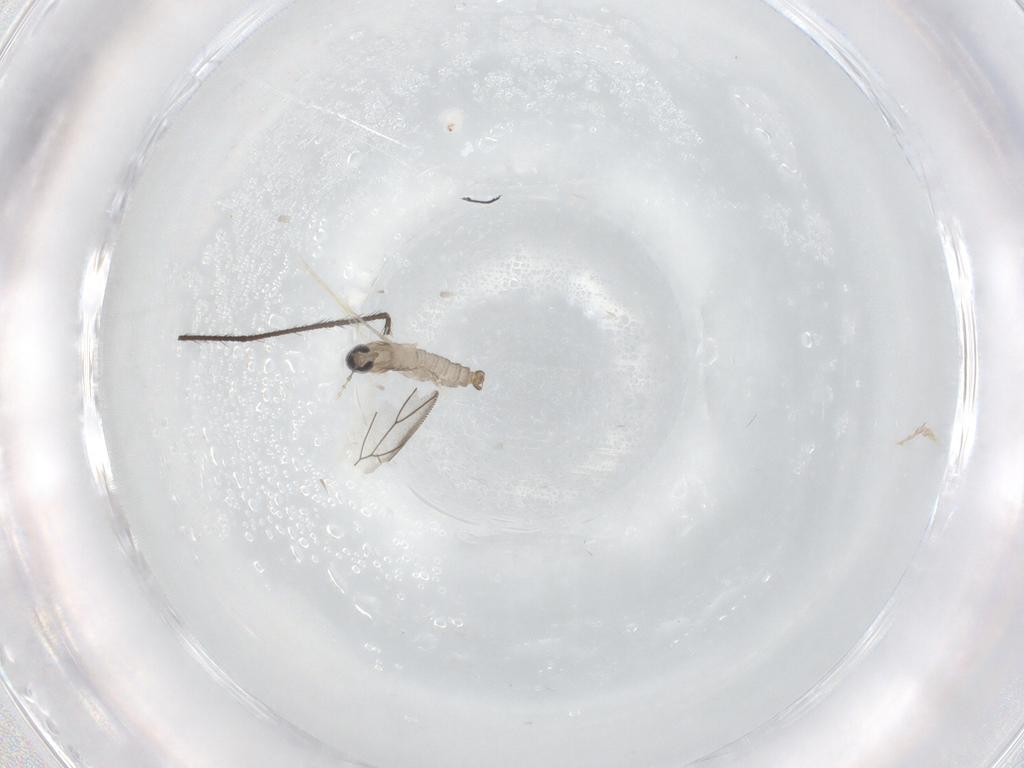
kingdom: Animalia
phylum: Arthropoda
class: Insecta
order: Diptera
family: Cecidomyiidae
